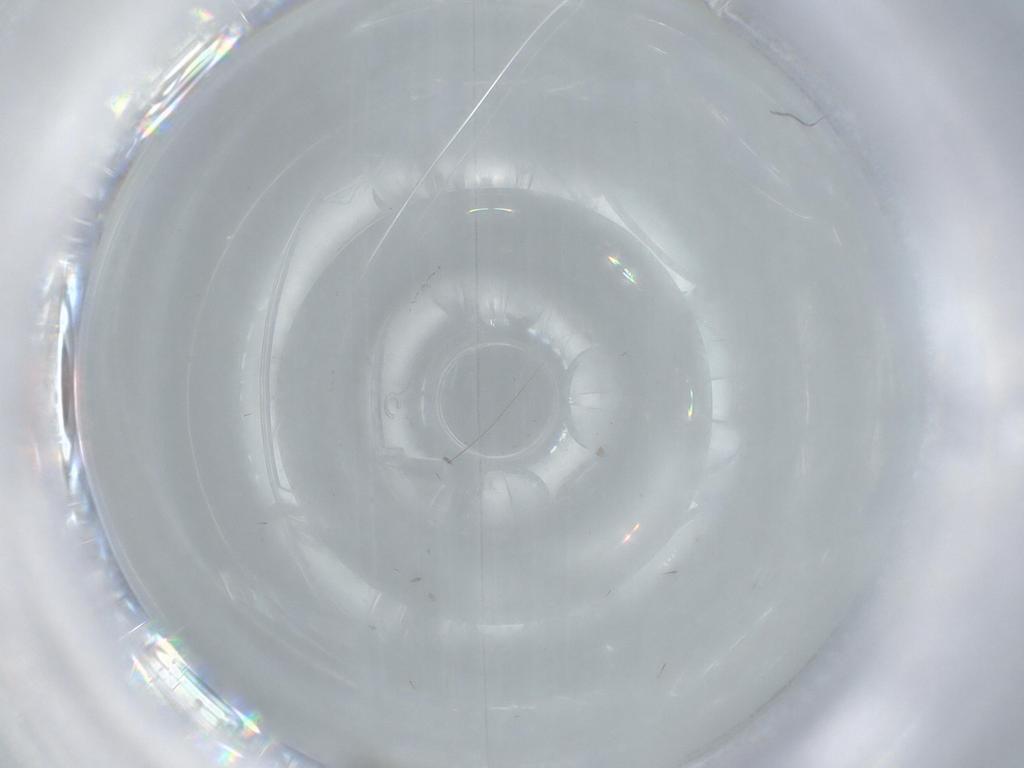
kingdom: Animalia
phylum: Arthropoda
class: Insecta
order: Diptera
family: Cecidomyiidae
